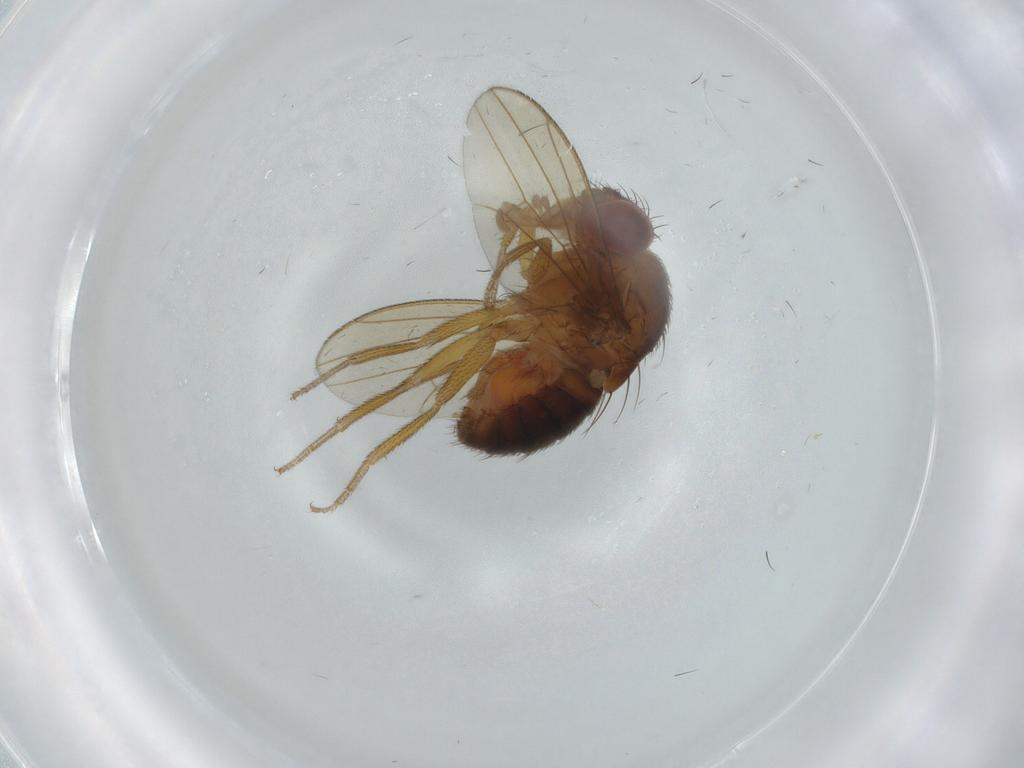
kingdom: Animalia
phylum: Arthropoda
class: Insecta
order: Diptera
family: Drosophilidae
